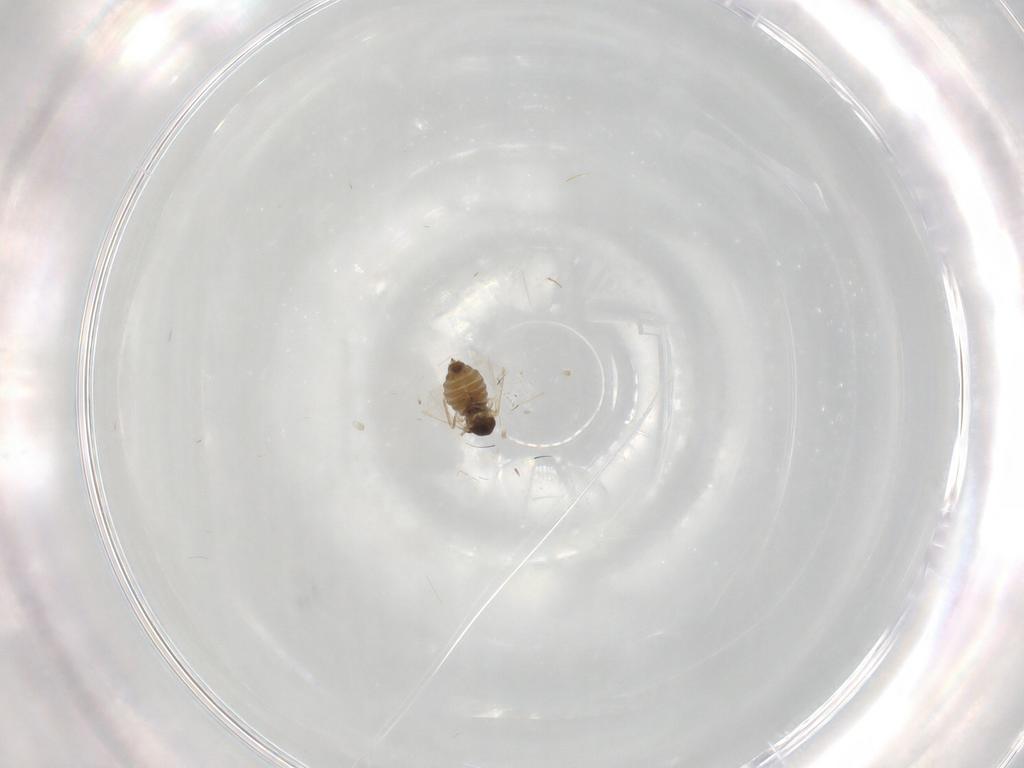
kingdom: Animalia
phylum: Arthropoda
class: Insecta
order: Diptera
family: Cecidomyiidae
